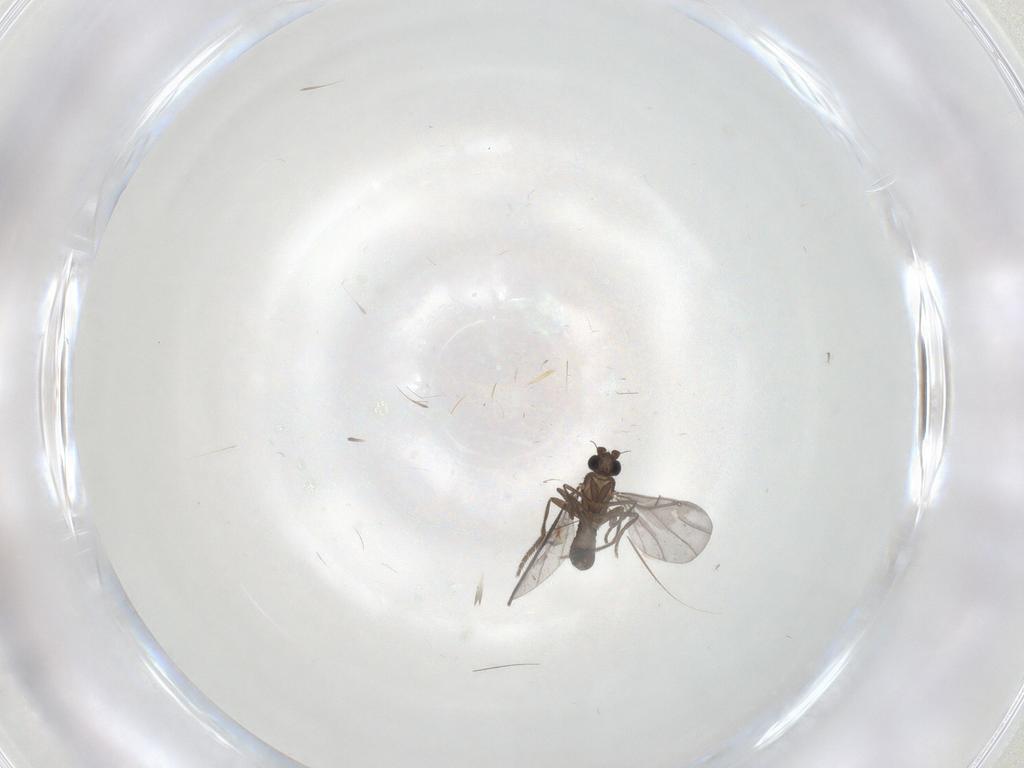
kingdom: Animalia
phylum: Arthropoda
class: Insecta
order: Diptera
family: Phoridae
